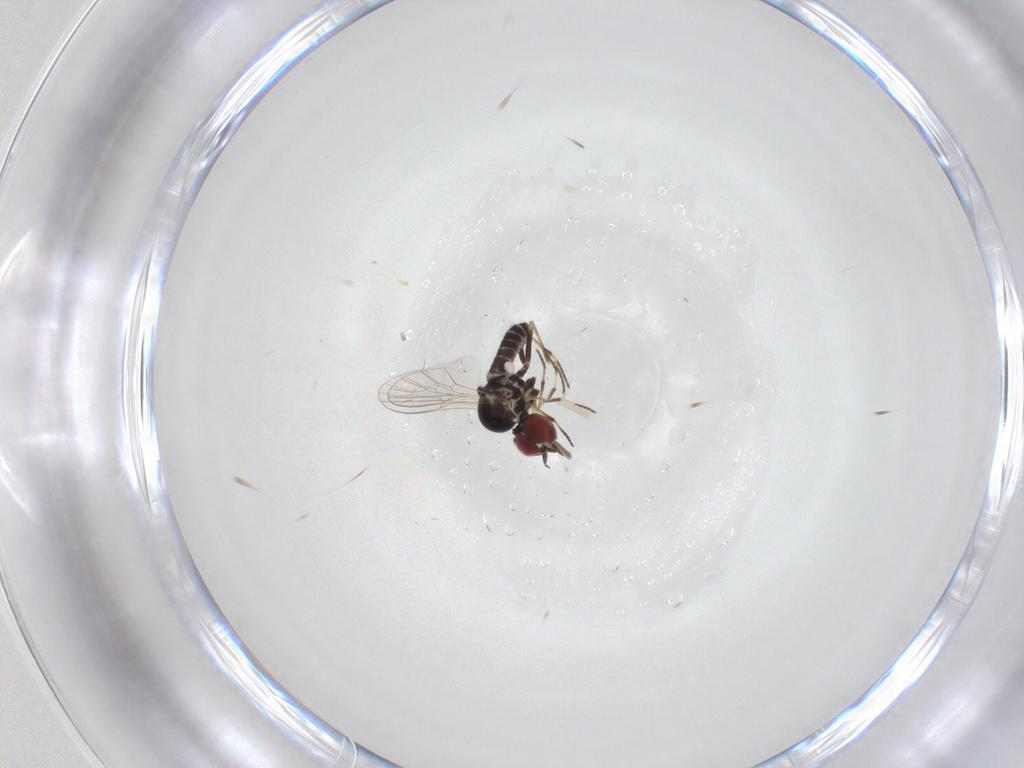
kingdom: Animalia
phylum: Arthropoda
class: Insecta
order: Diptera
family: Mythicomyiidae
